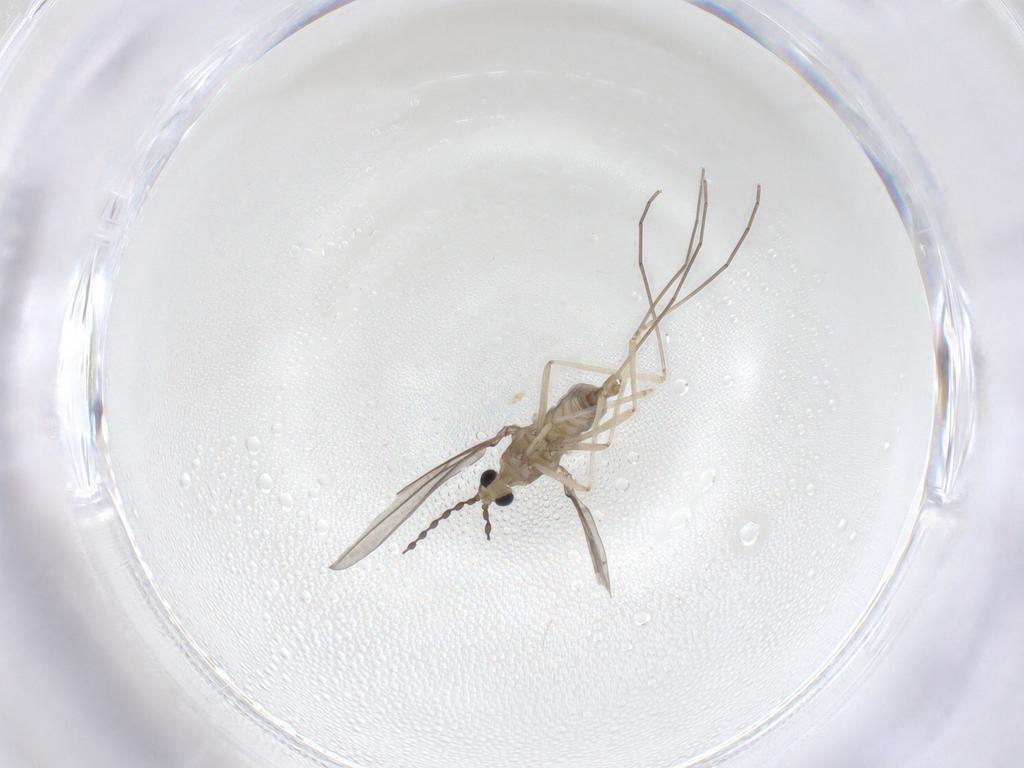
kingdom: Animalia
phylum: Arthropoda
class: Insecta
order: Diptera
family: Cecidomyiidae
